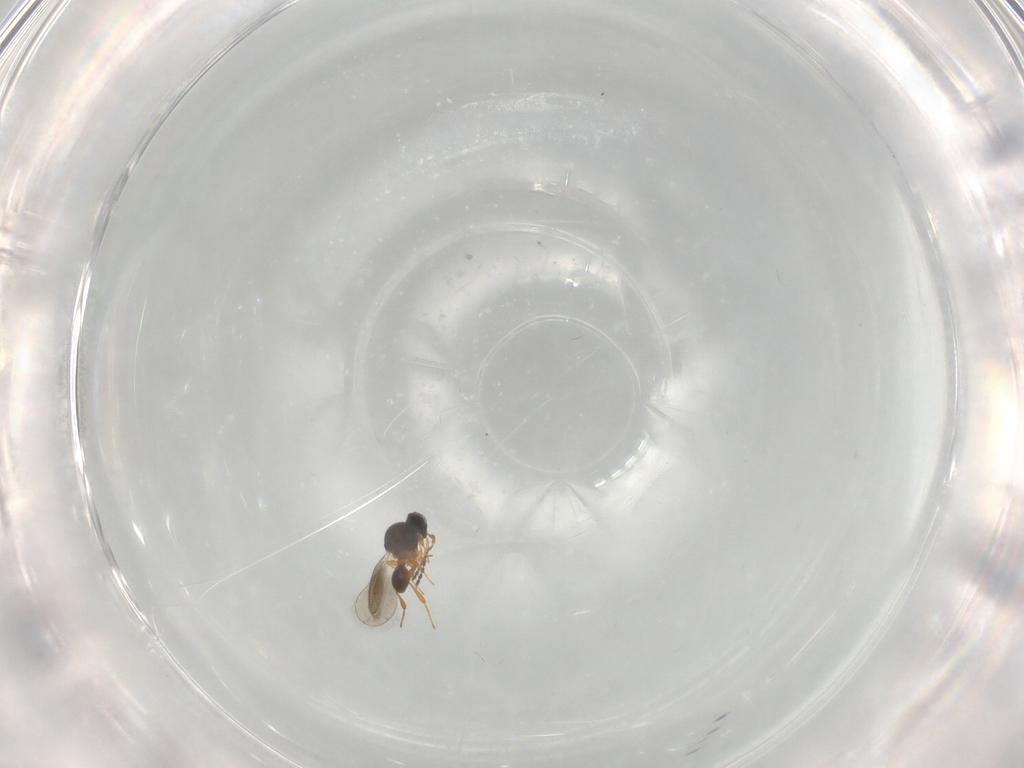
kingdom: Animalia
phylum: Arthropoda
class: Insecta
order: Hymenoptera
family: Platygastridae
